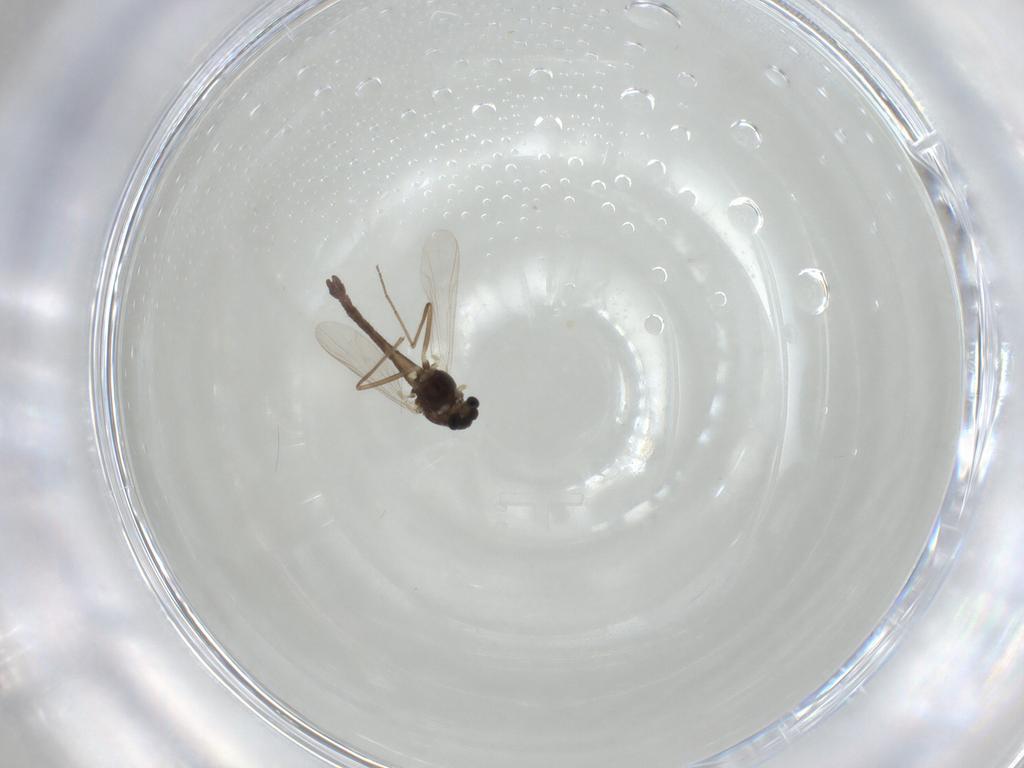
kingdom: Animalia
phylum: Arthropoda
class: Insecta
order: Diptera
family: Chironomidae
